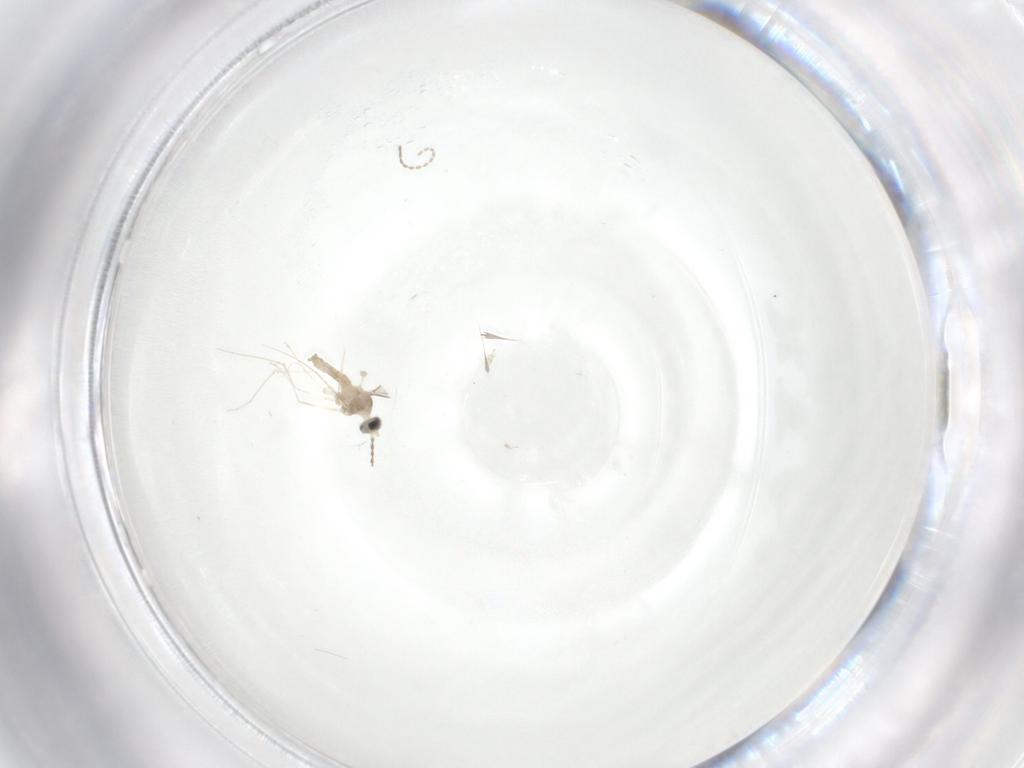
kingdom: Animalia
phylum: Arthropoda
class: Insecta
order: Diptera
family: Cecidomyiidae
